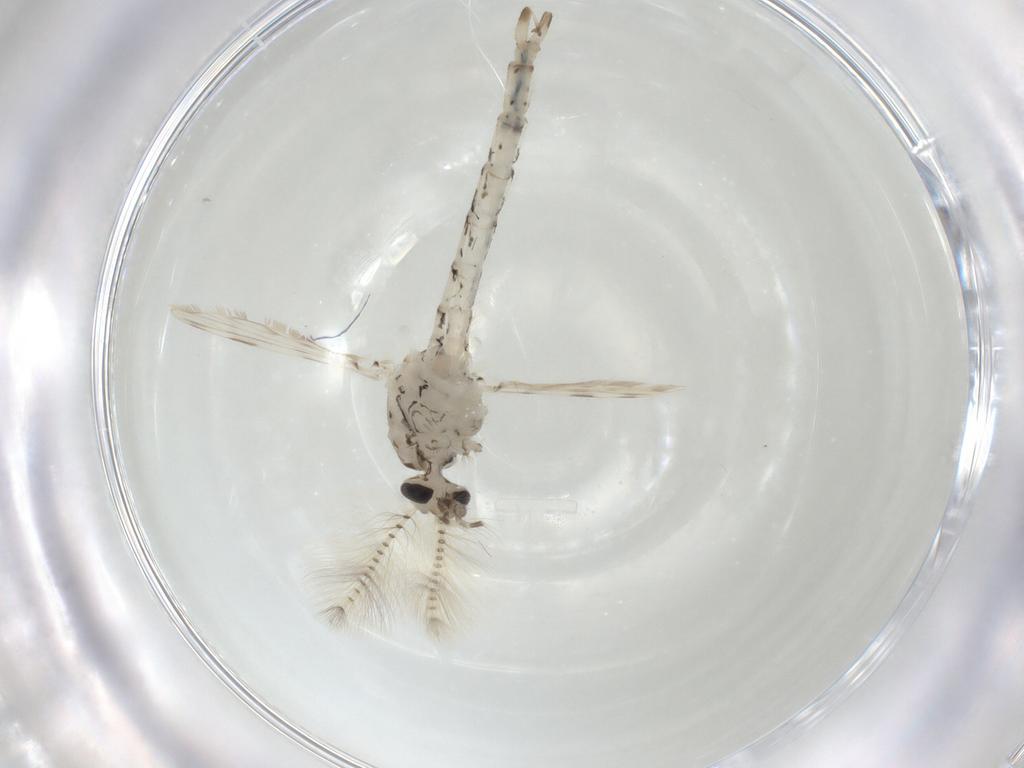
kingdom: Animalia
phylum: Arthropoda
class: Insecta
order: Diptera
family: Chaoboridae
